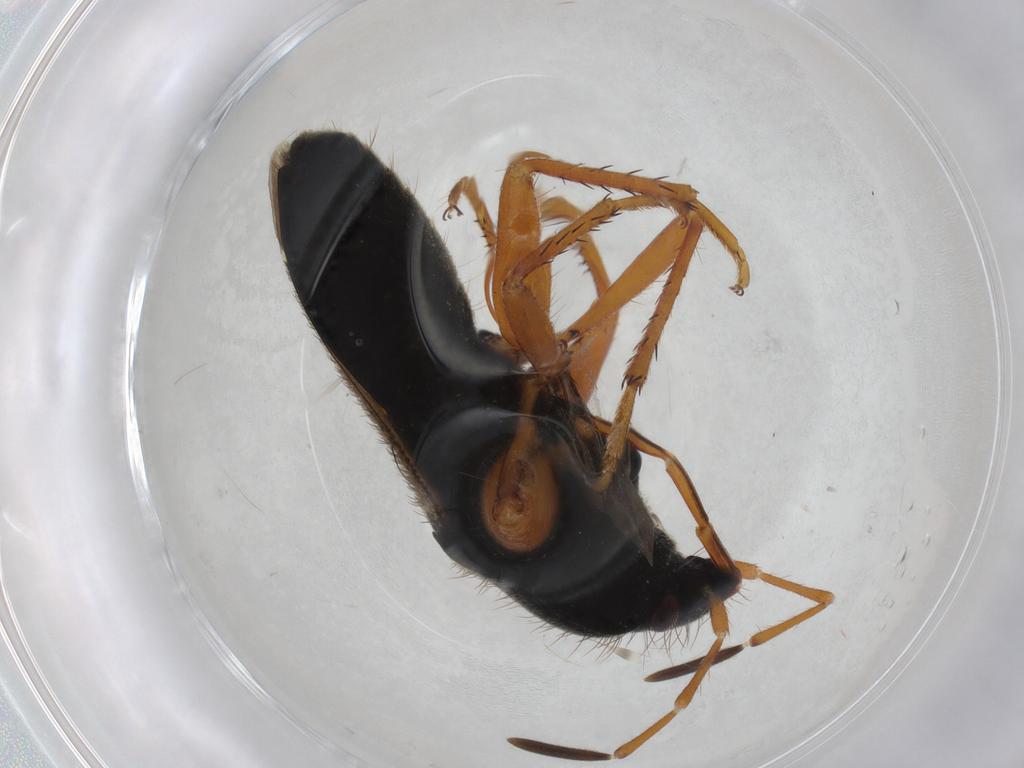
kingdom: Animalia
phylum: Arthropoda
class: Insecta
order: Hemiptera
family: Rhyparochromidae
